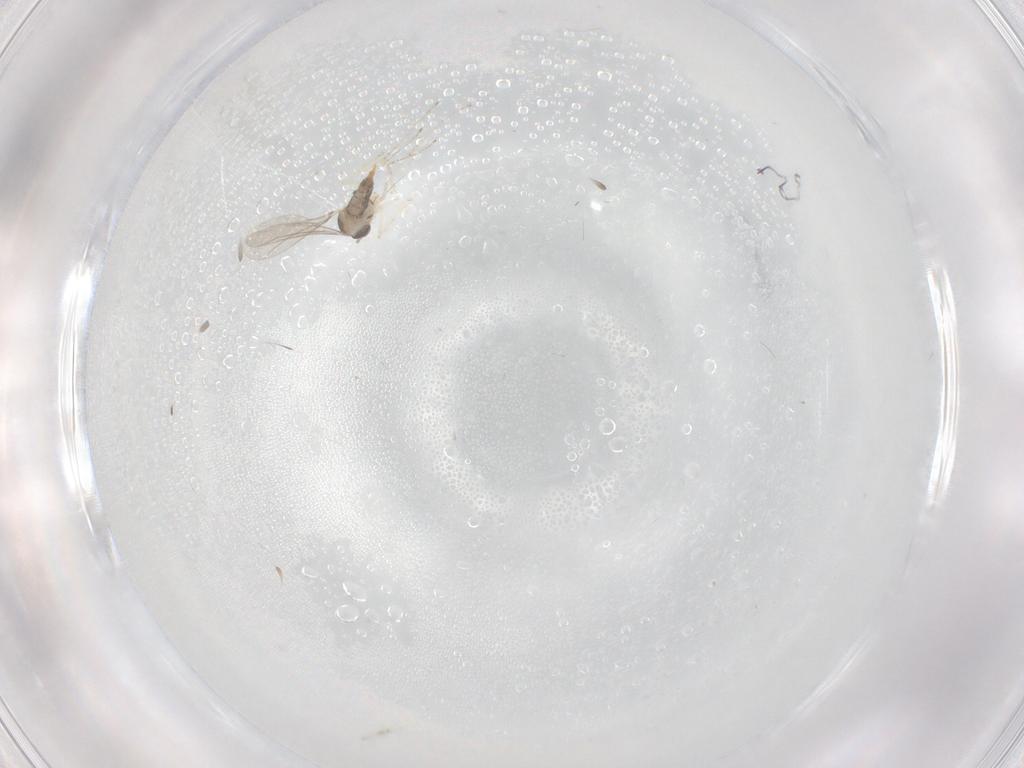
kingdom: Animalia
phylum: Arthropoda
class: Insecta
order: Diptera
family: Cecidomyiidae
